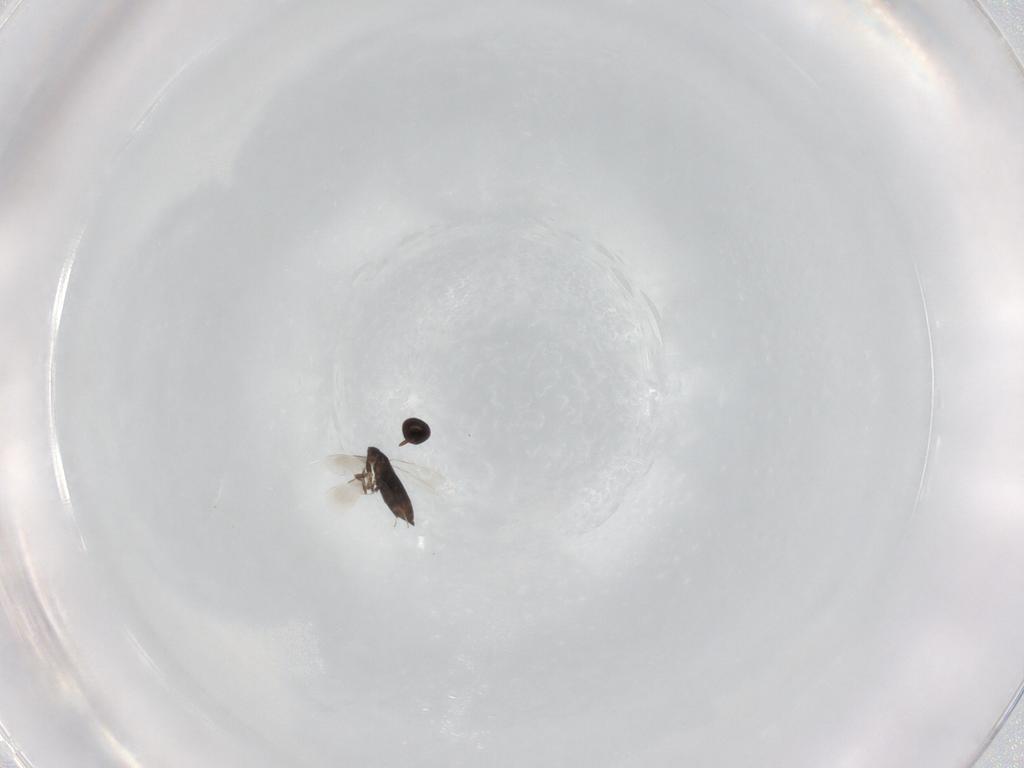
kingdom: Animalia
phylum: Arthropoda
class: Insecta
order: Hymenoptera
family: Signiphoridae
